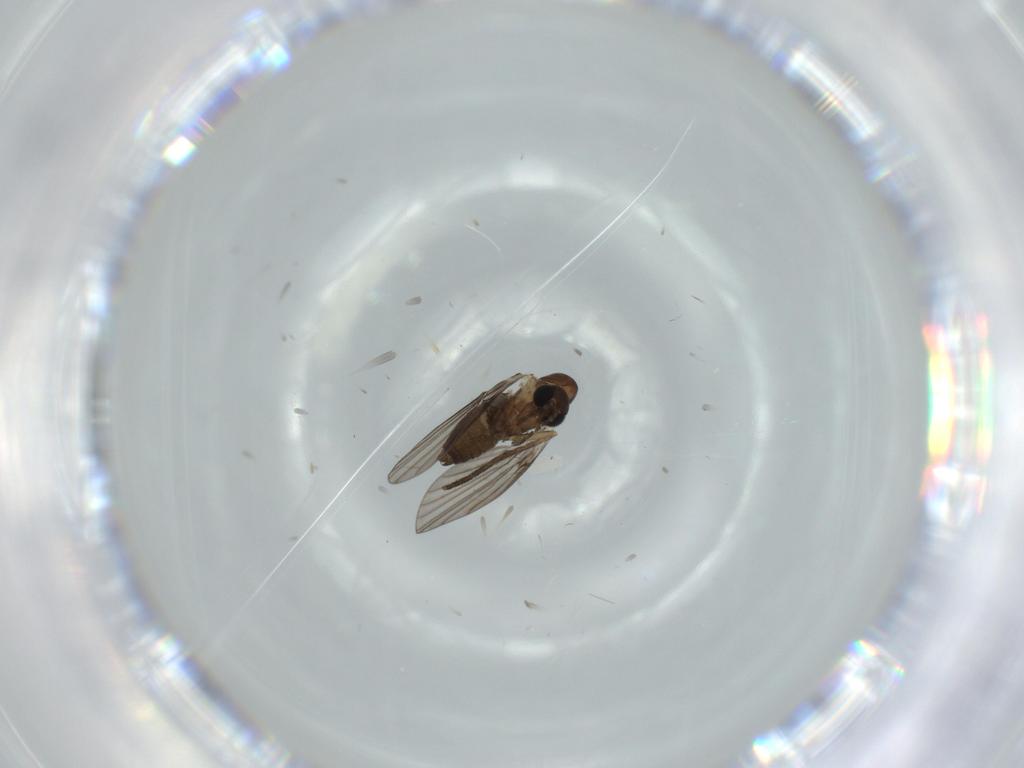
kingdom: Animalia
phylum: Arthropoda
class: Insecta
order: Diptera
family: Psychodidae
